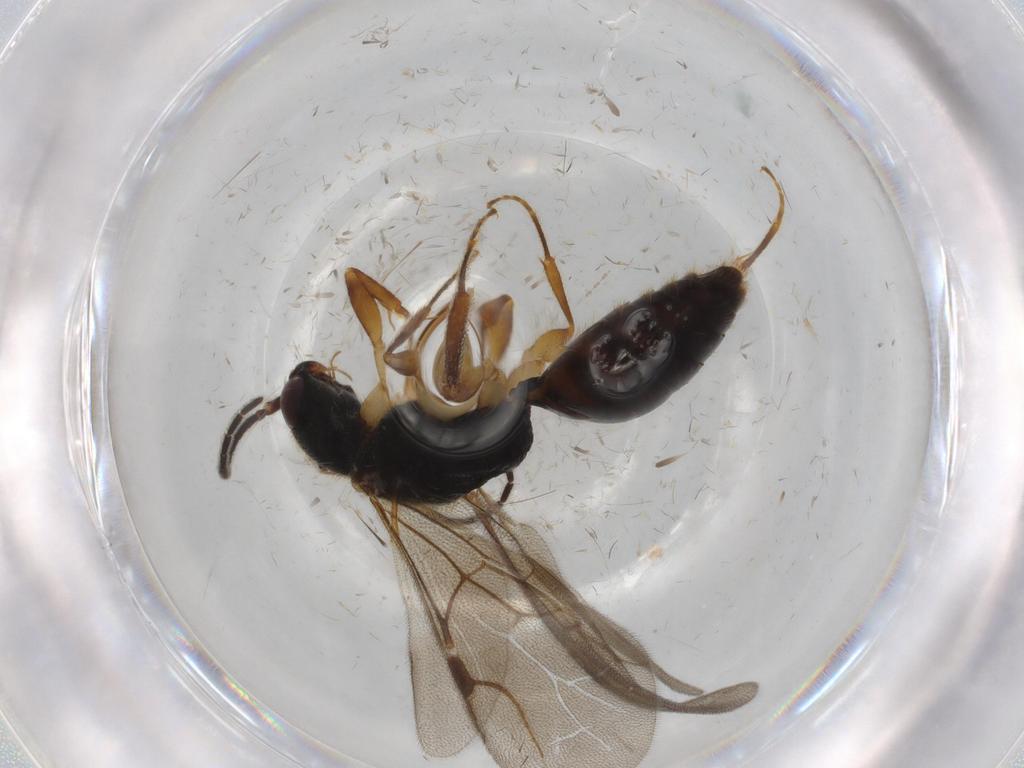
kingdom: Animalia
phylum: Arthropoda
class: Insecta
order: Hymenoptera
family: Bethylidae
